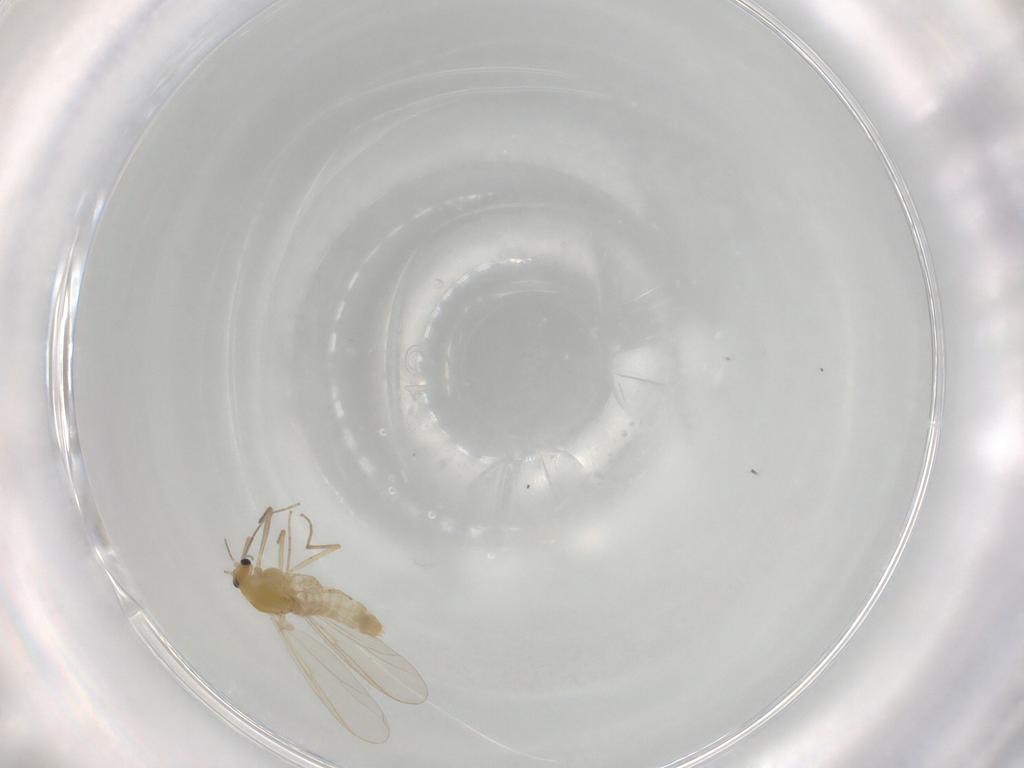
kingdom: Animalia
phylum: Arthropoda
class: Insecta
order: Diptera
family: Chironomidae
